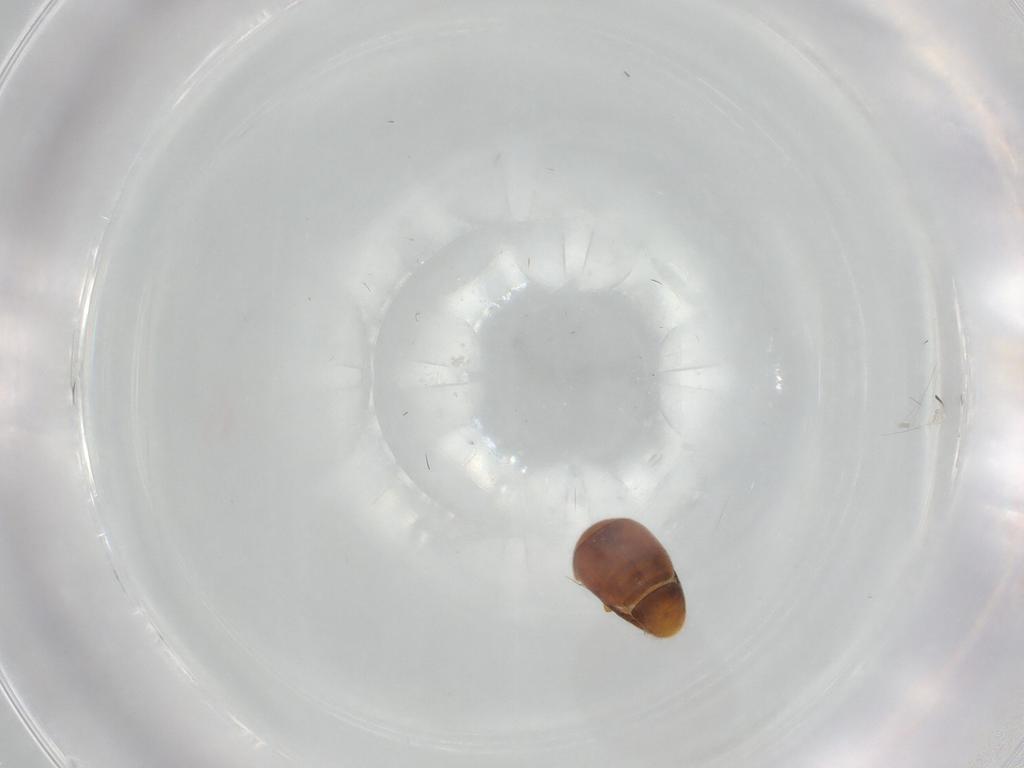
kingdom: Animalia
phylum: Arthropoda
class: Insecta
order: Coleoptera
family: Corylophidae
